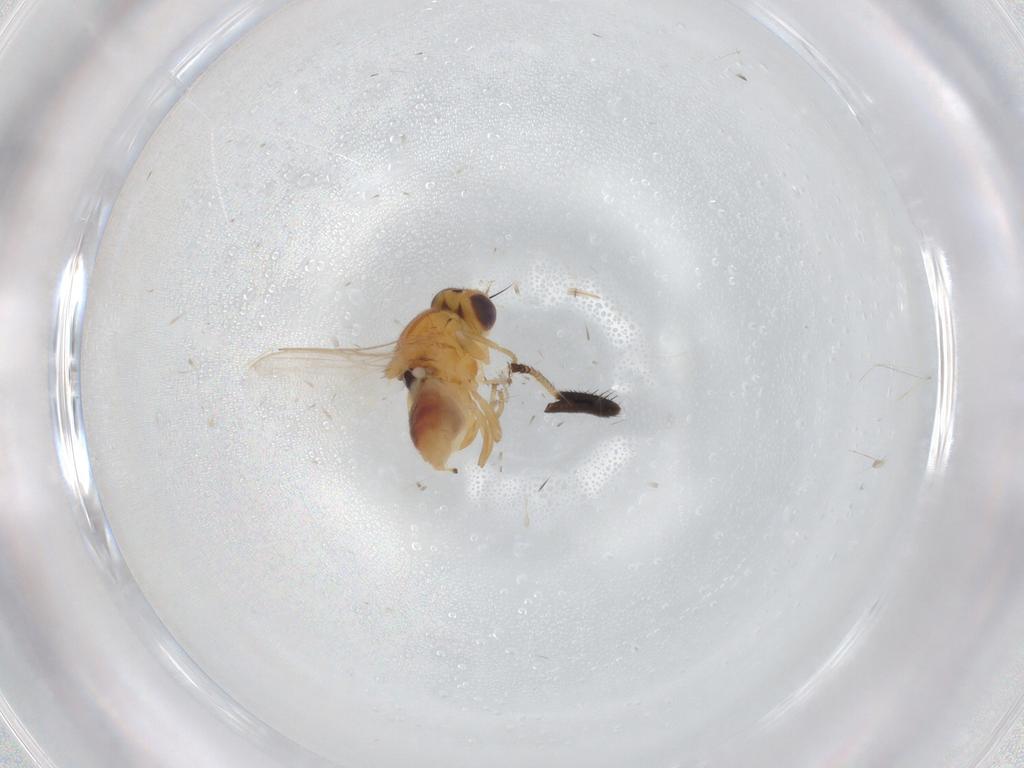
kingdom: Animalia
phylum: Arthropoda
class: Insecta
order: Diptera
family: Chloropidae
